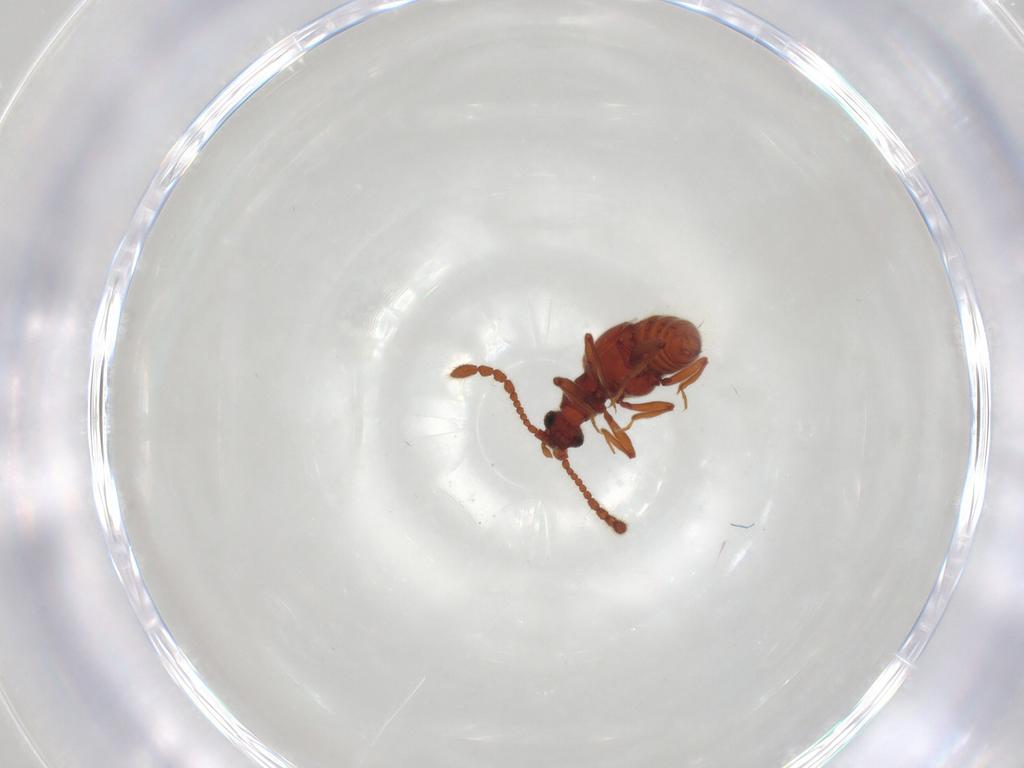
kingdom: Animalia
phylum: Arthropoda
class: Insecta
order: Coleoptera
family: Staphylinidae
